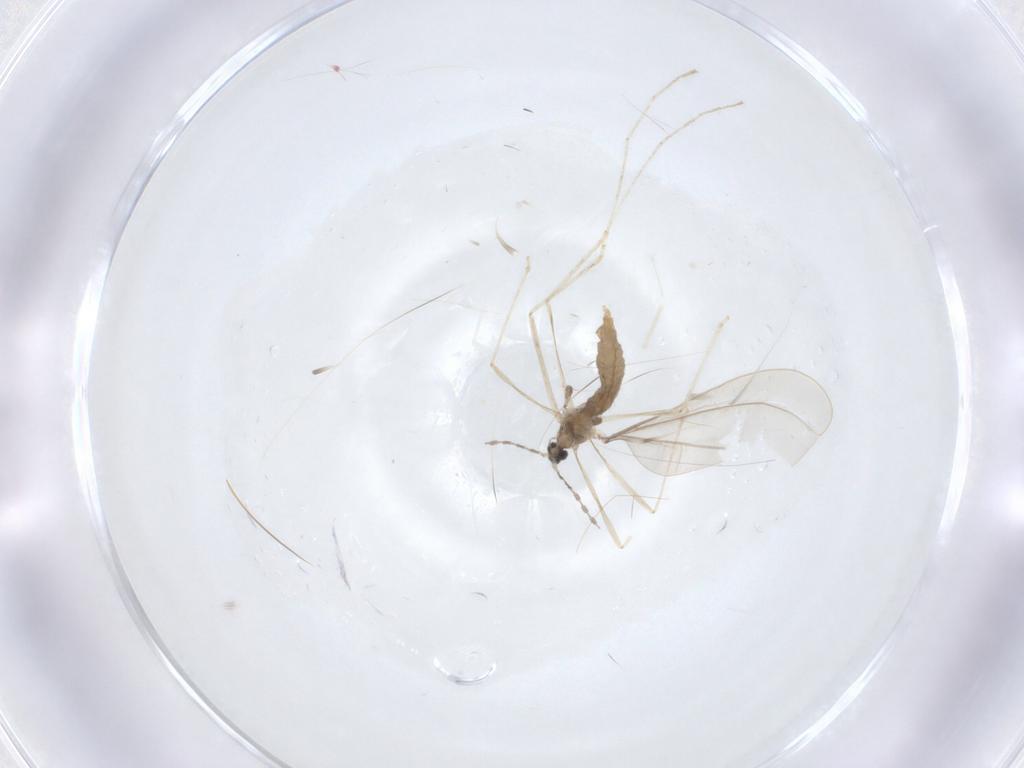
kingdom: Animalia
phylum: Arthropoda
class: Insecta
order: Diptera
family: Cecidomyiidae
